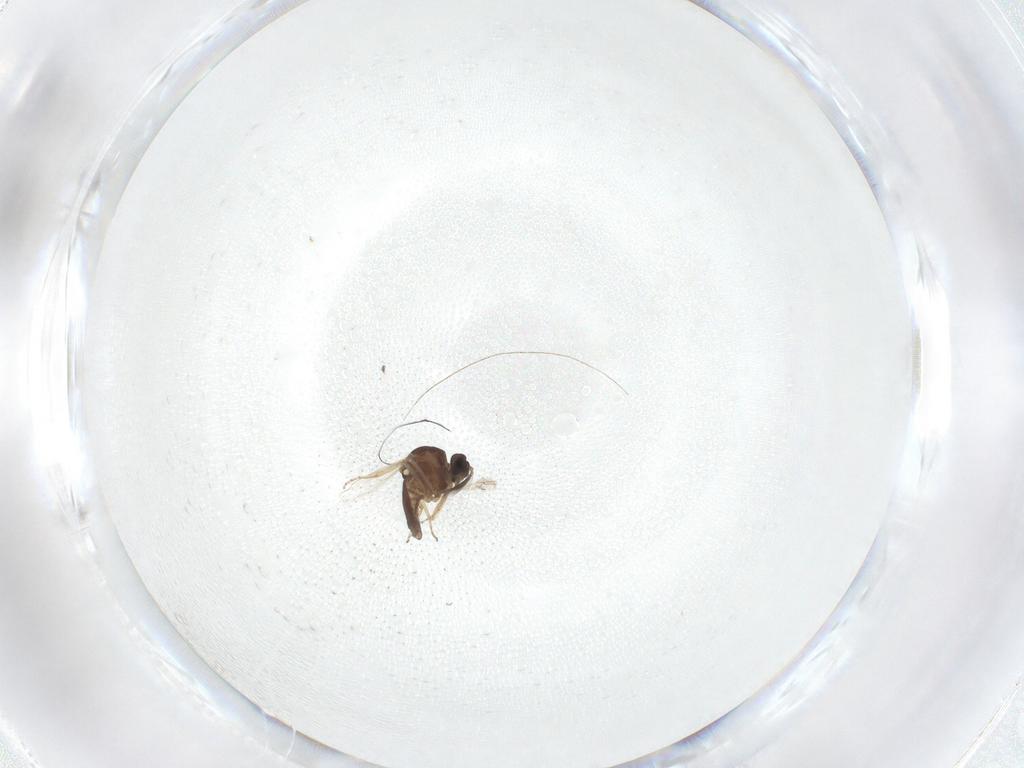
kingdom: Animalia
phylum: Arthropoda
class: Insecta
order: Diptera
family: Ceratopogonidae
